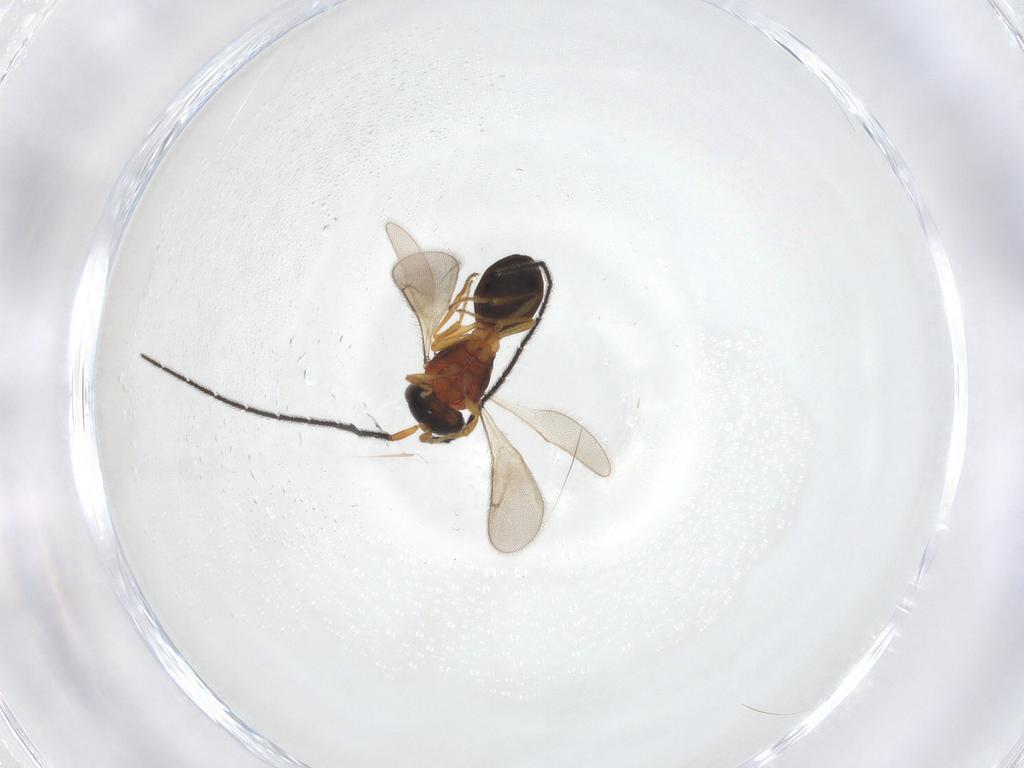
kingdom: Animalia
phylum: Arthropoda
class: Insecta
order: Hymenoptera
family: Scelionidae
